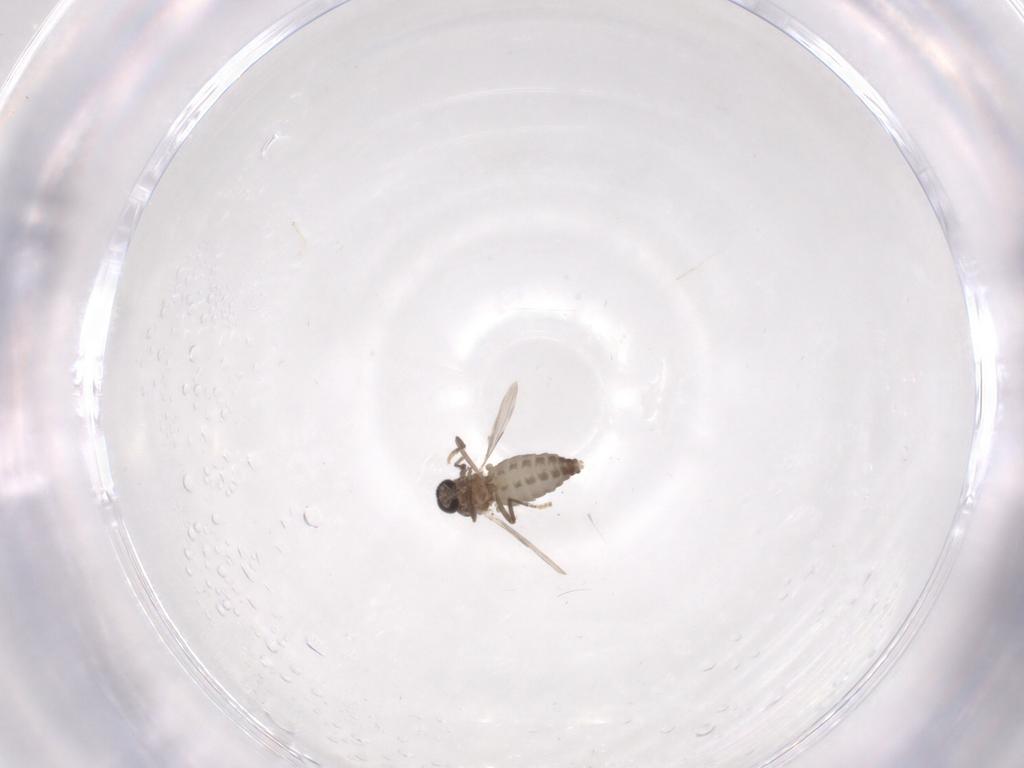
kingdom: Animalia
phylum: Arthropoda
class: Insecta
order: Diptera
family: Ceratopogonidae
